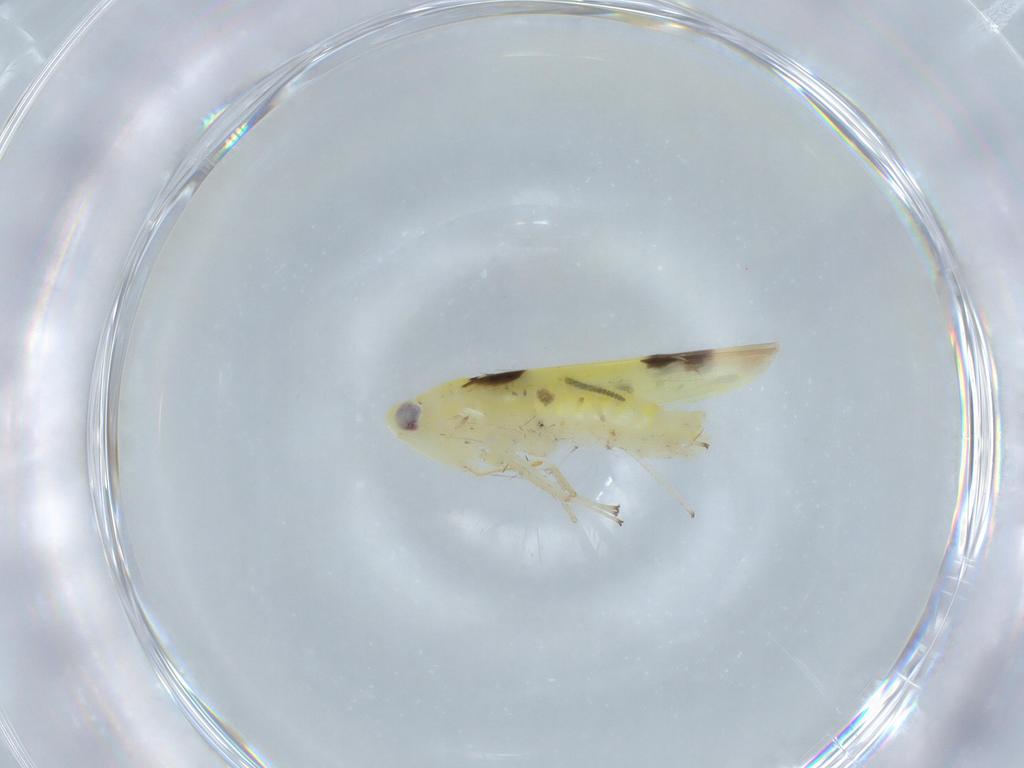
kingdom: Animalia
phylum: Arthropoda
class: Insecta
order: Hemiptera
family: Cicadellidae
